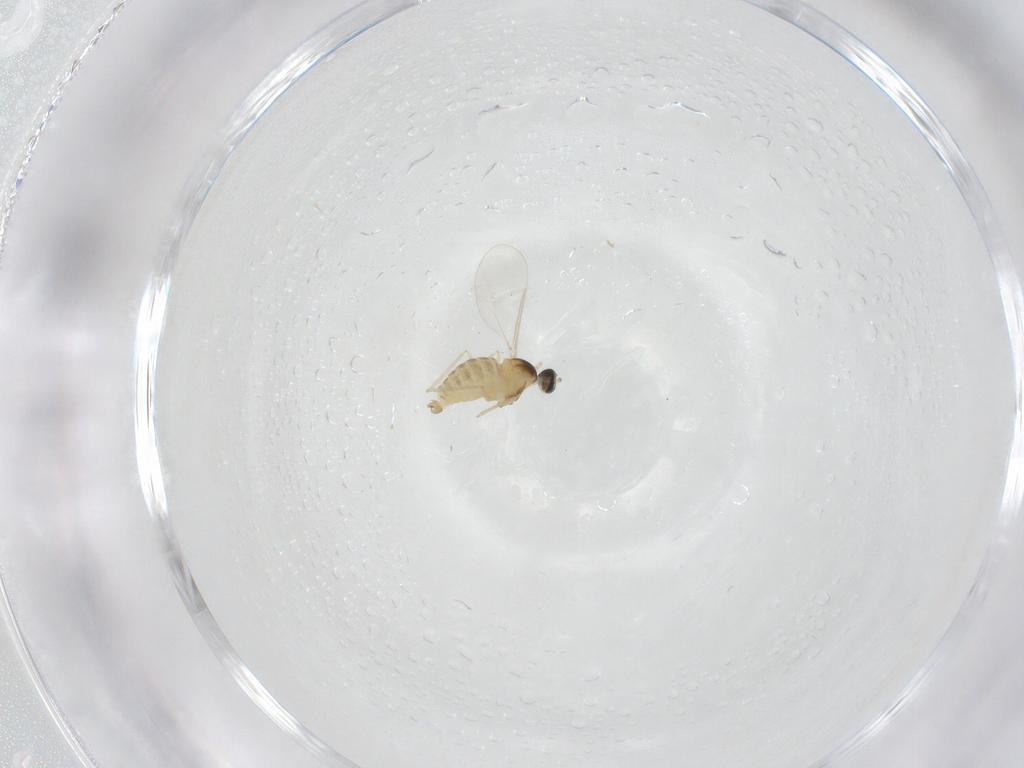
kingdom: Animalia
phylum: Arthropoda
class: Insecta
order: Diptera
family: Cecidomyiidae
